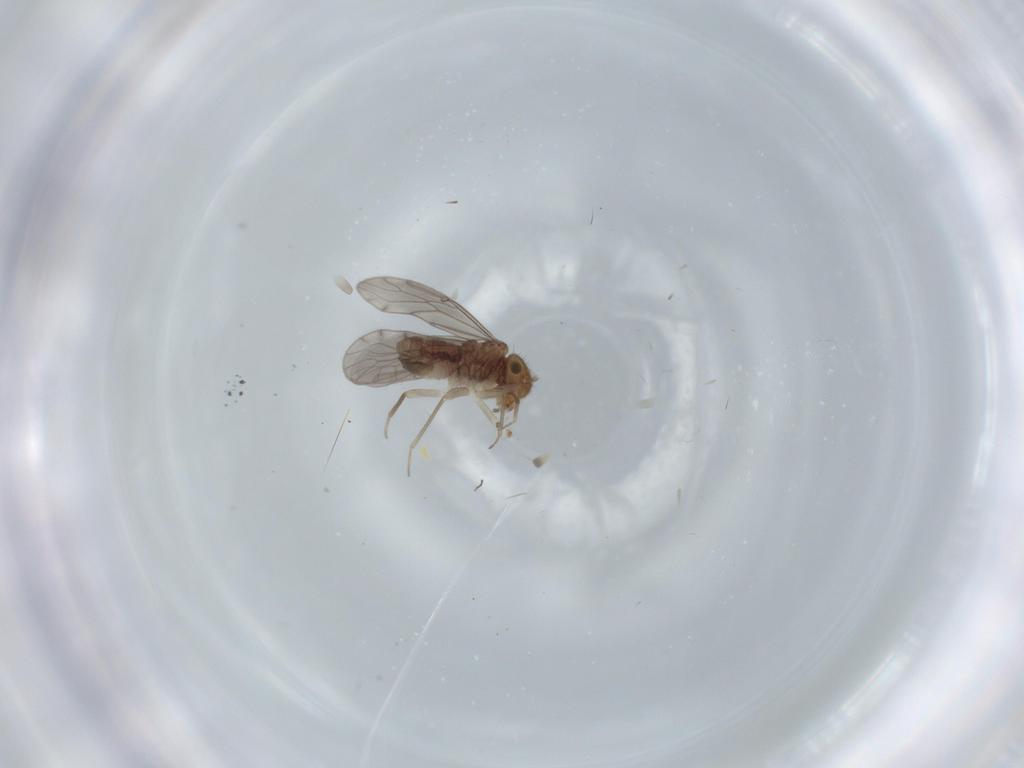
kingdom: Animalia
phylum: Arthropoda
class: Insecta
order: Psocodea
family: Ectopsocidae
